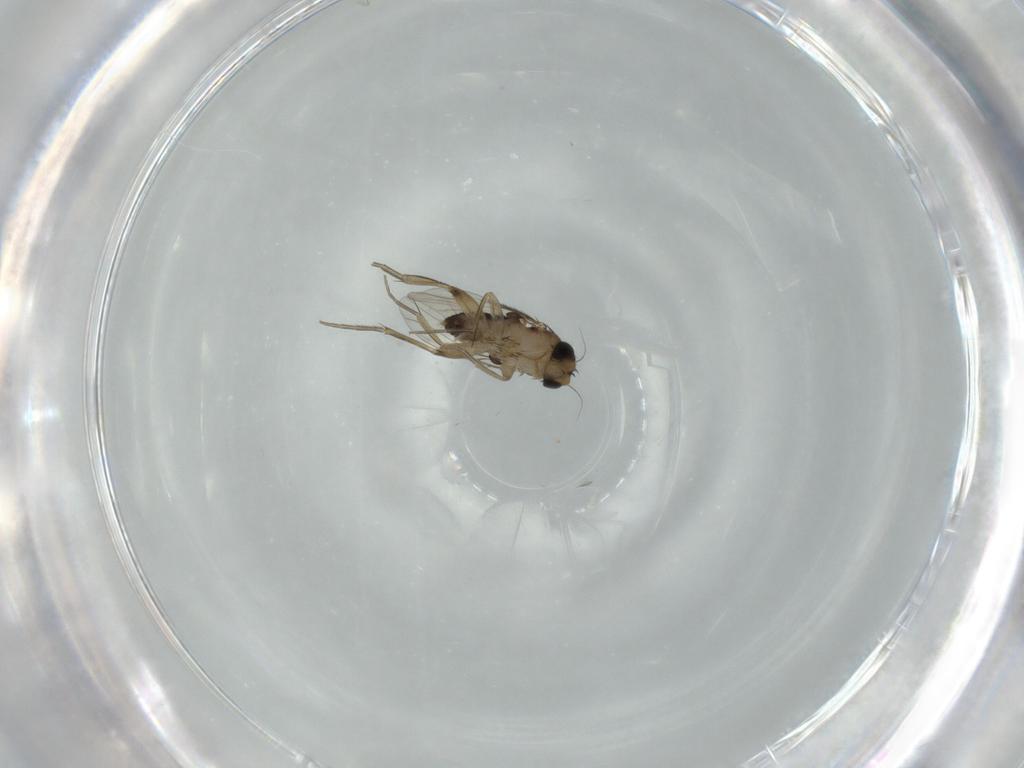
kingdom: Animalia
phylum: Arthropoda
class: Insecta
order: Diptera
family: Phoridae
